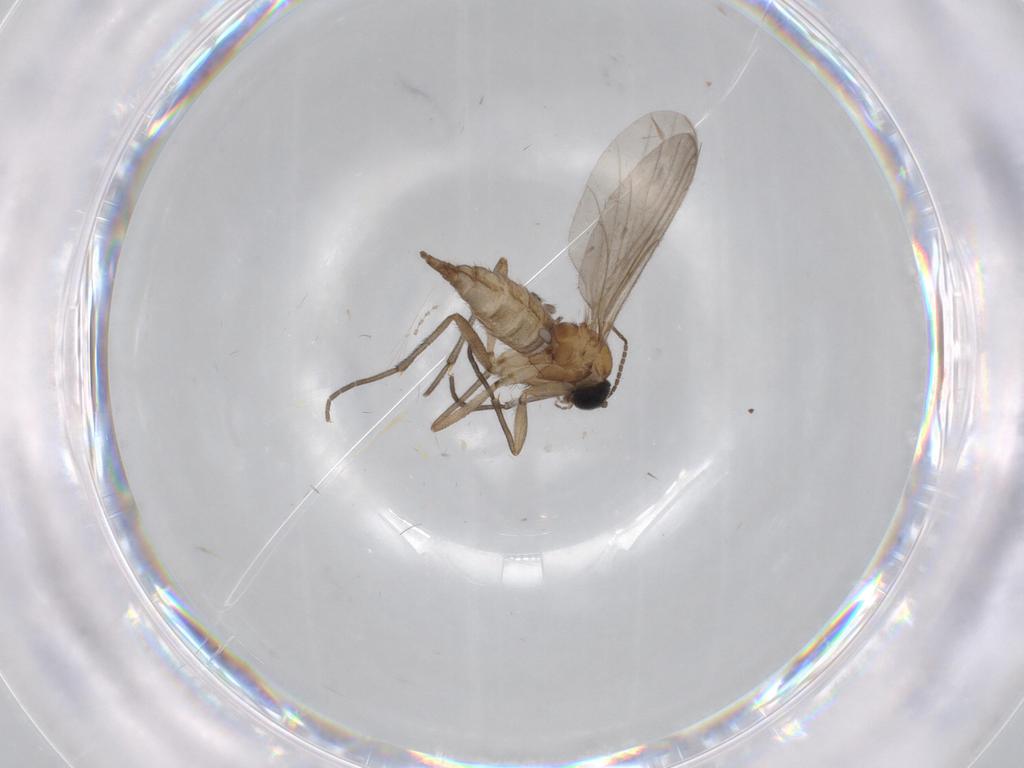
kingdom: Animalia
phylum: Arthropoda
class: Insecta
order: Diptera
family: Sciaridae
